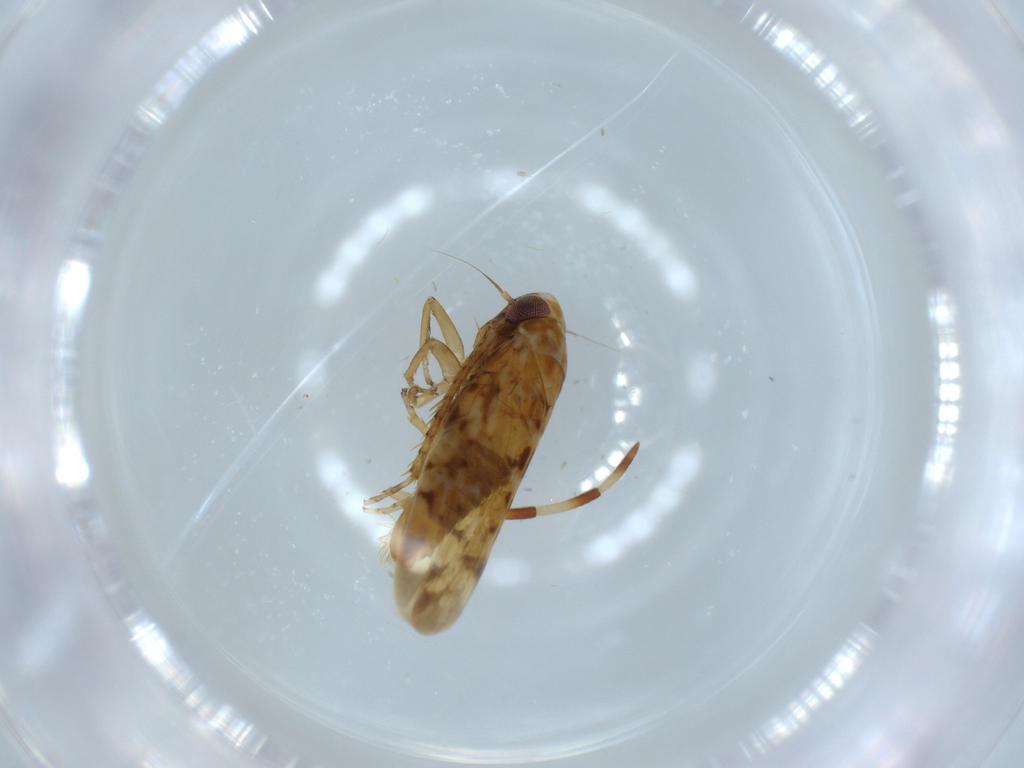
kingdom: Animalia
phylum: Arthropoda
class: Insecta
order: Hemiptera
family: Cicadellidae
